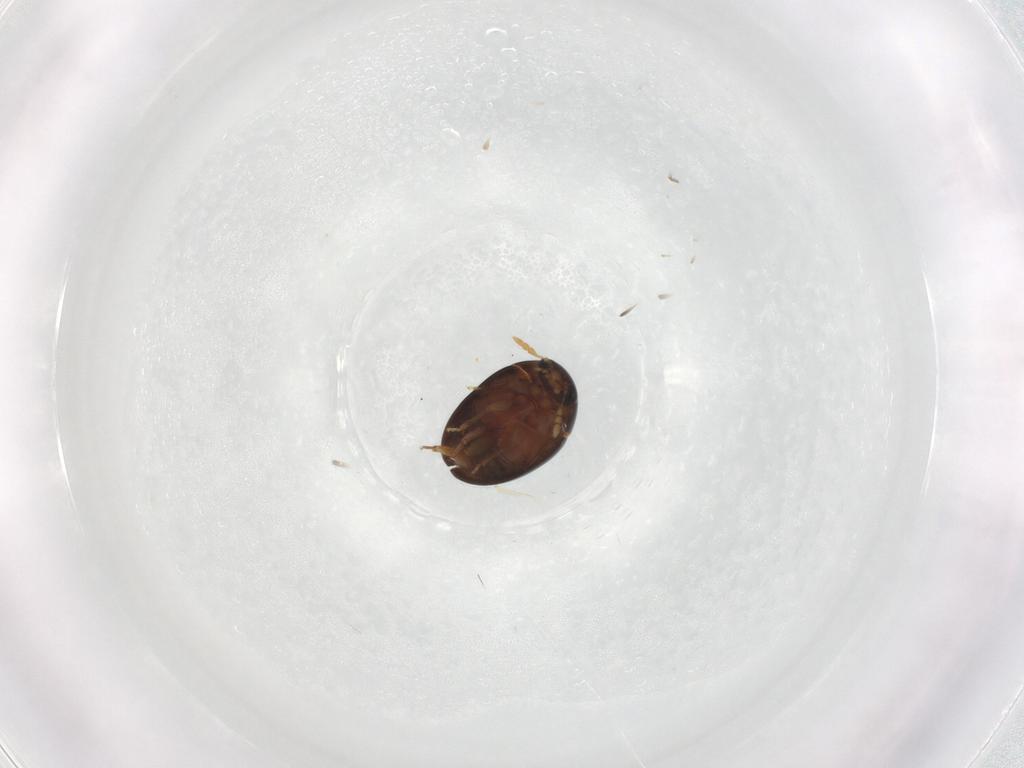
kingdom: Animalia
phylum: Arthropoda
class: Insecta
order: Coleoptera
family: Phalacridae
